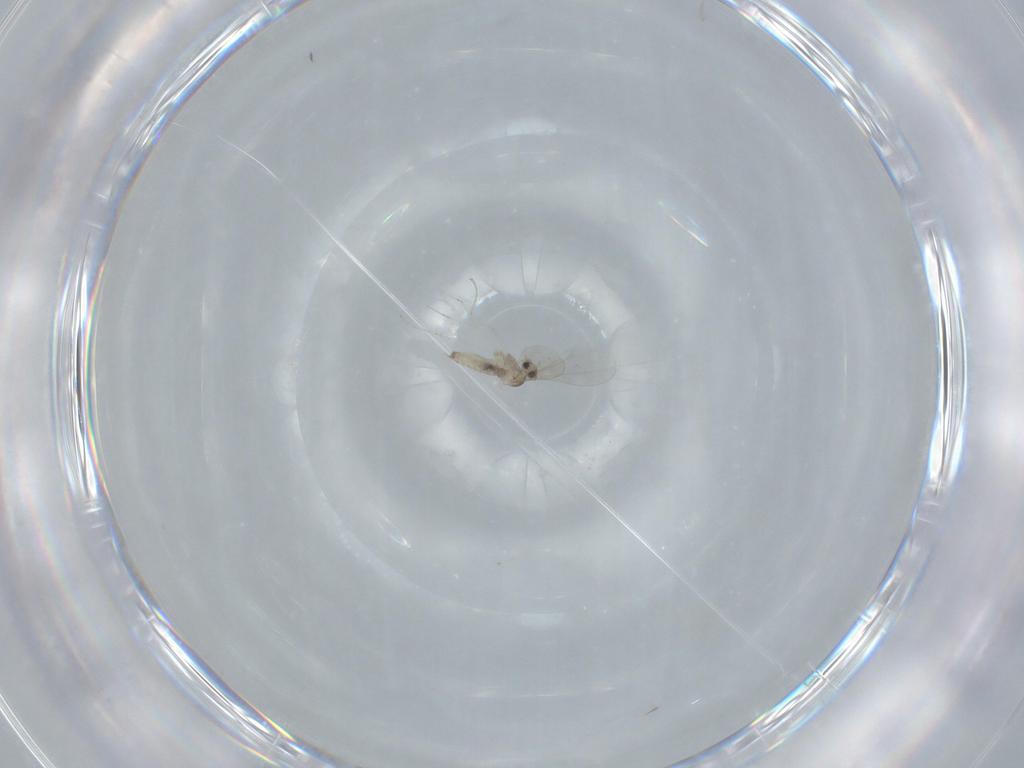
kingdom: Animalia
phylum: Arthropoda
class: Insecta
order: Diptera
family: Cecidomyiidae
